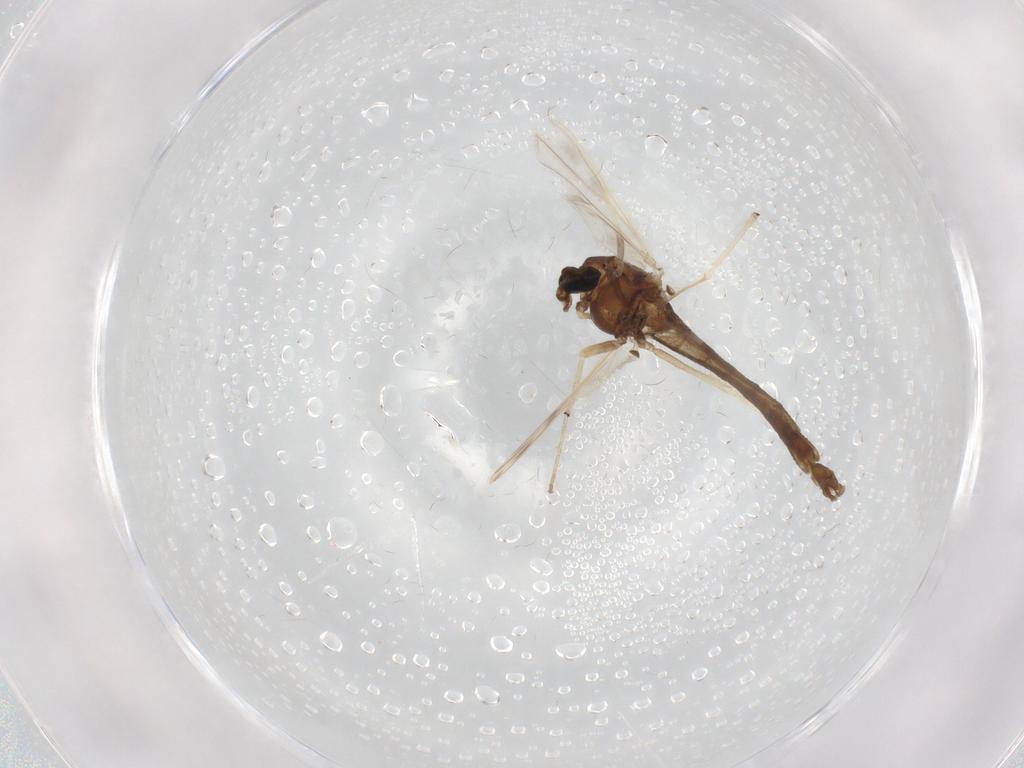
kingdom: Animalia
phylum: Arthropoda
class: Insecta
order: Diptera
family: Chironomidae
